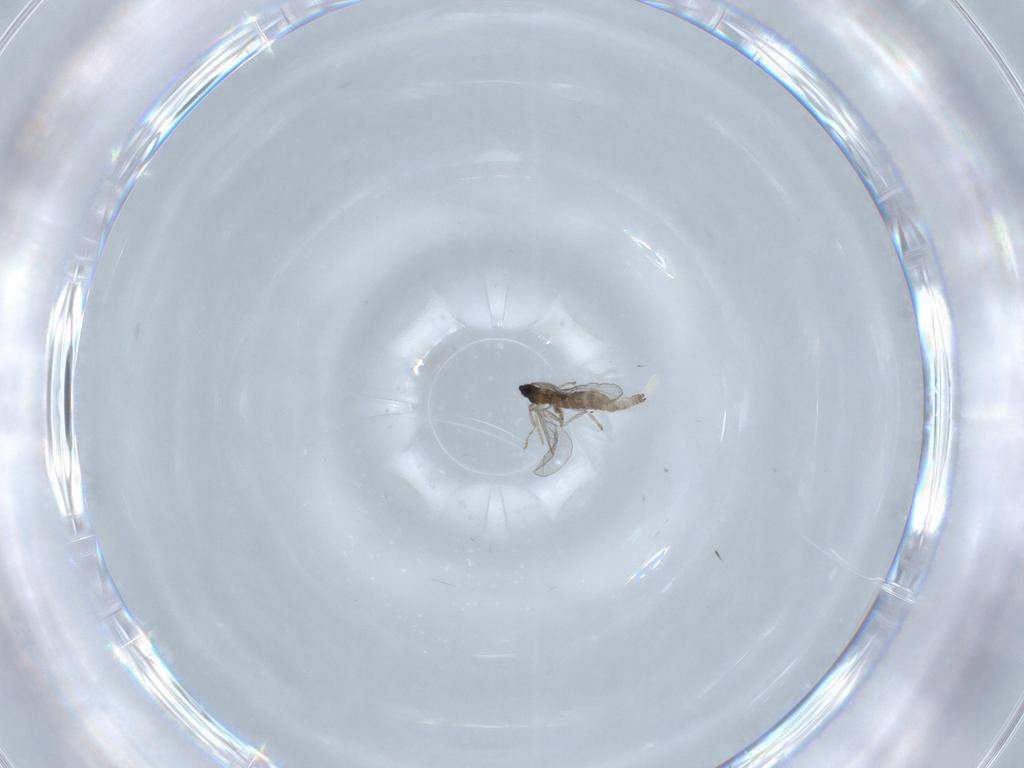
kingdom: Animalia
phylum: Arthropoda
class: Insecta
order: Diptera
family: Cecidomyiidae
